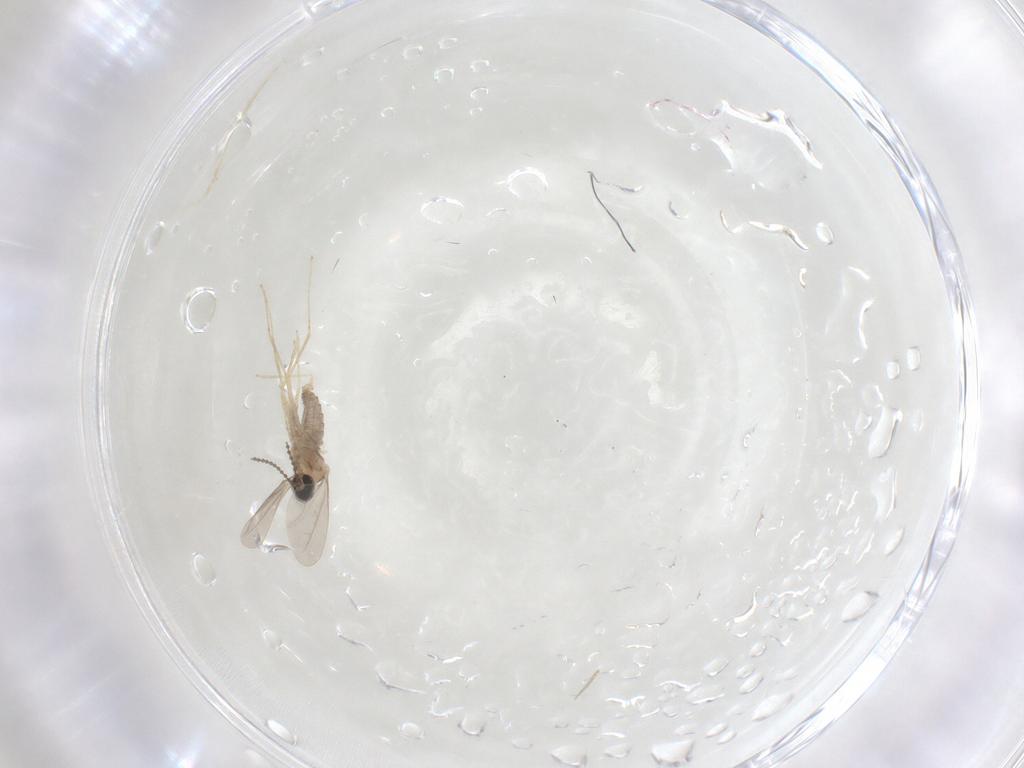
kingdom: Animalia
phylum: Arthropoda
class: Insecta
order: Diptera
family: Cecidomyiidae
